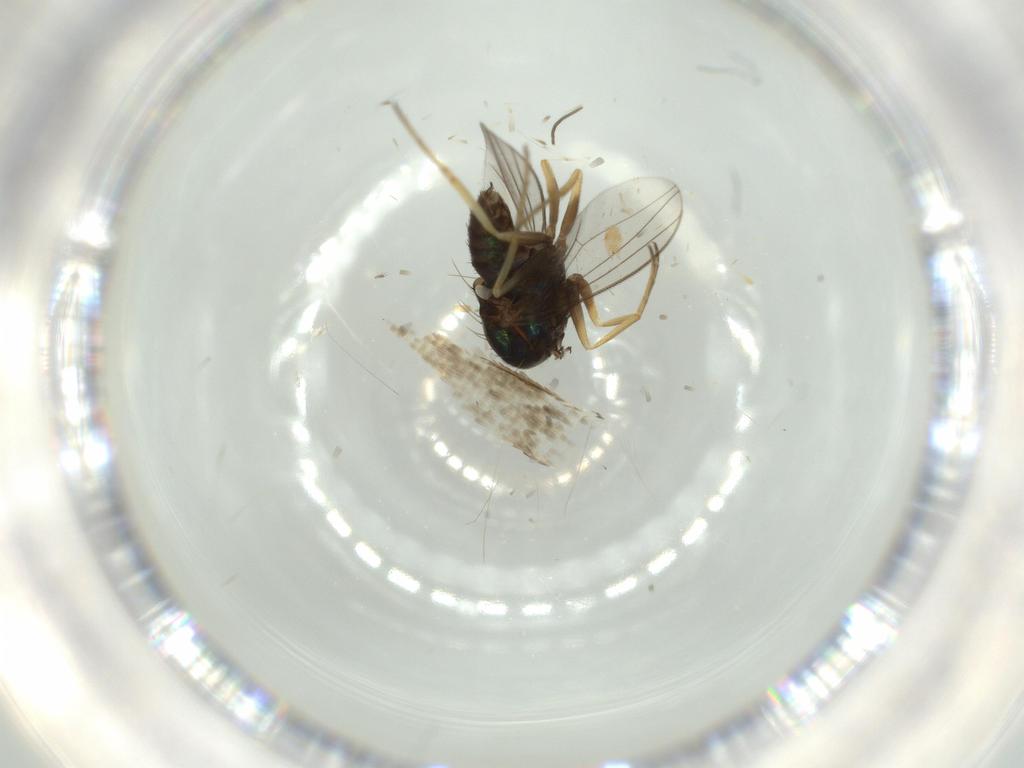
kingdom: Animalia
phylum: Arthropoda
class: Insecta
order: Diptera
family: Dolichopodidae
